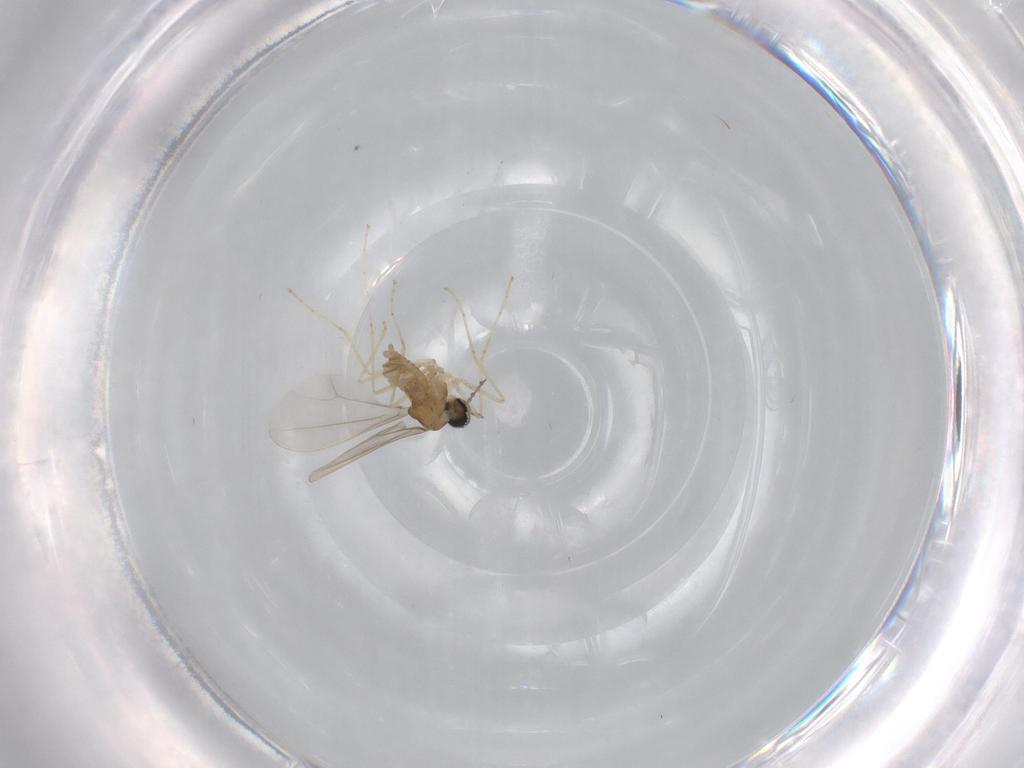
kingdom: Animalia
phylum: Arthropoda
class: Insecta
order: Diptera
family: Cecidomyiidae
